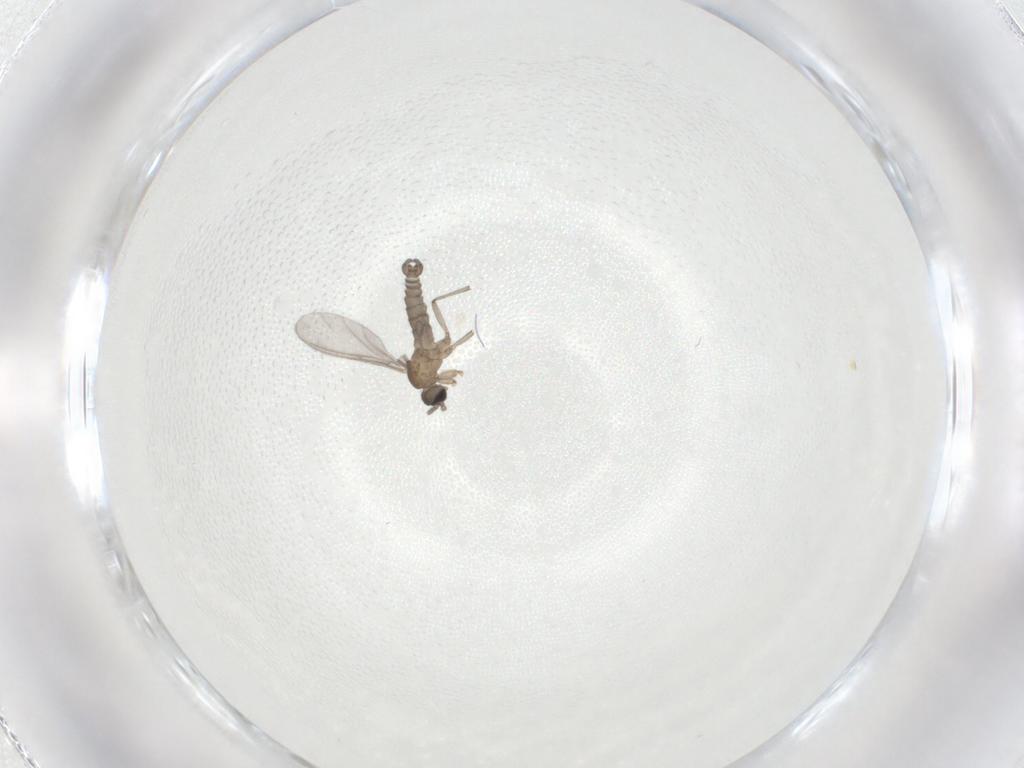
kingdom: Animalia
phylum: Arthropoda
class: Insecta
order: Diptera
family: Sciaridae
